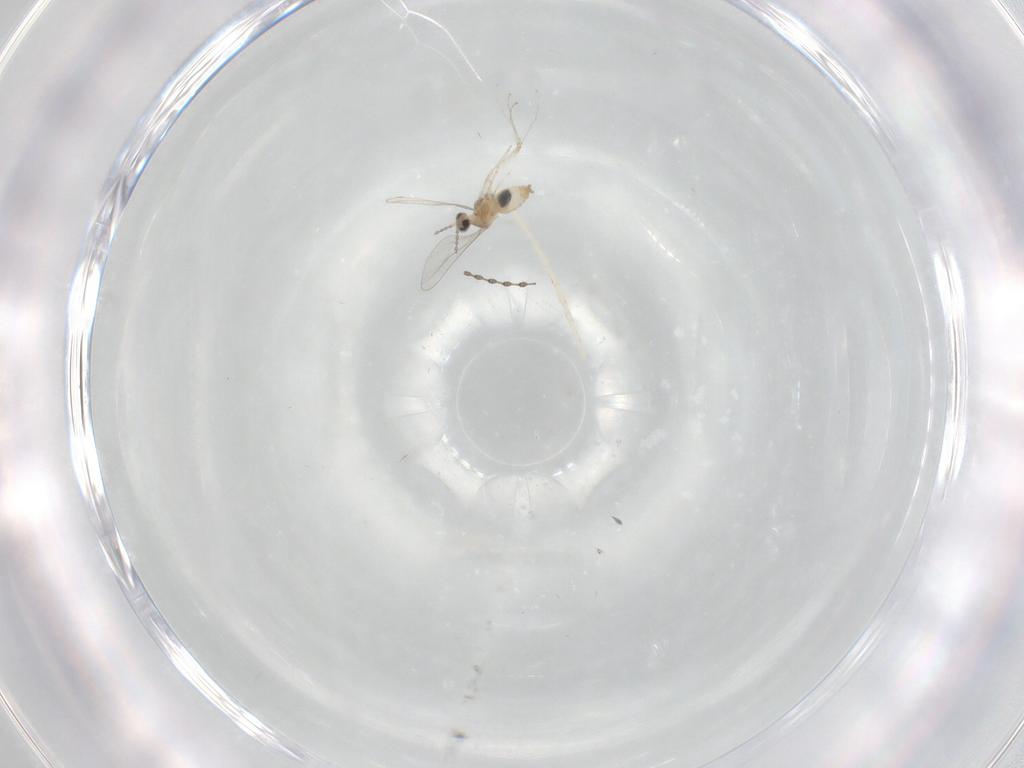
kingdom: Animalia
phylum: Arthropoda
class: Insecta
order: Diptera
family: Cecidomyiidae
